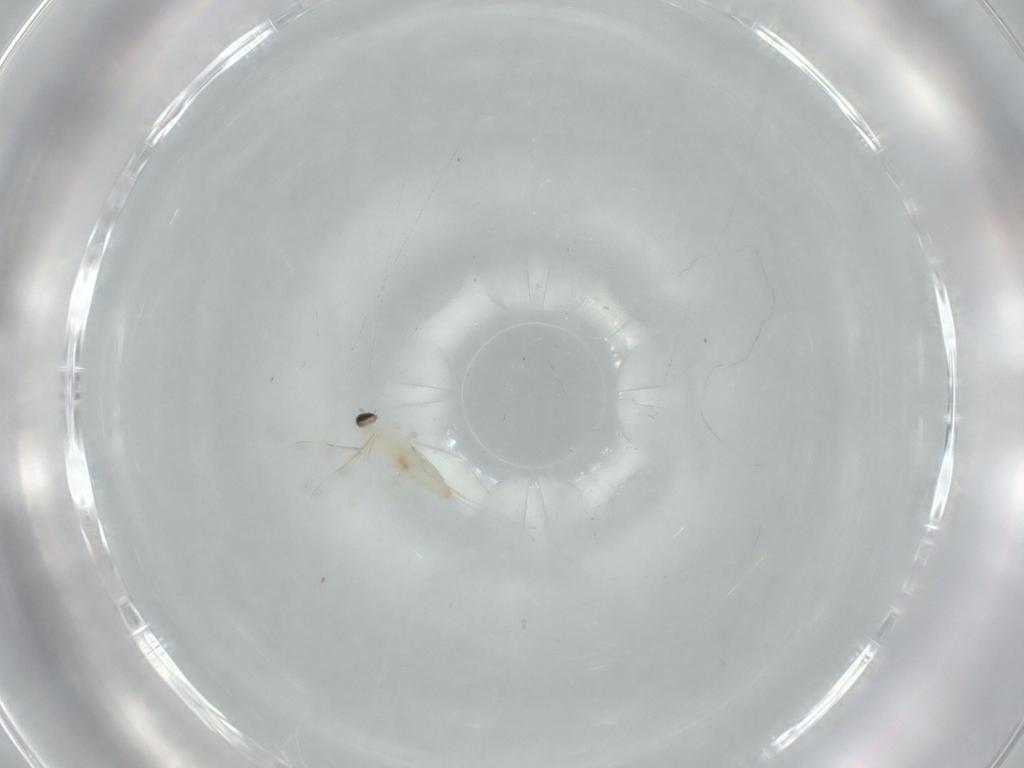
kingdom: Animalia
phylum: Arthropoda
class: Insecta
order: Diptera
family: Cecidomyiidae
